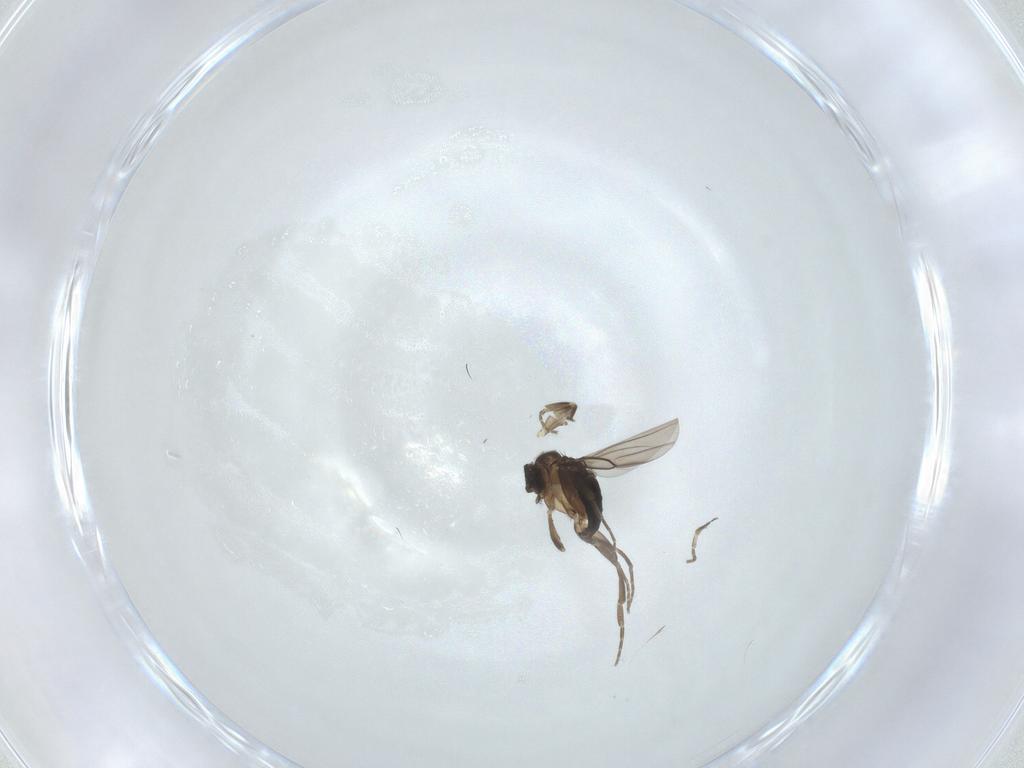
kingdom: Animalia
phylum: Arthropoda
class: Insecta
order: Diptera
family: Phoridae
